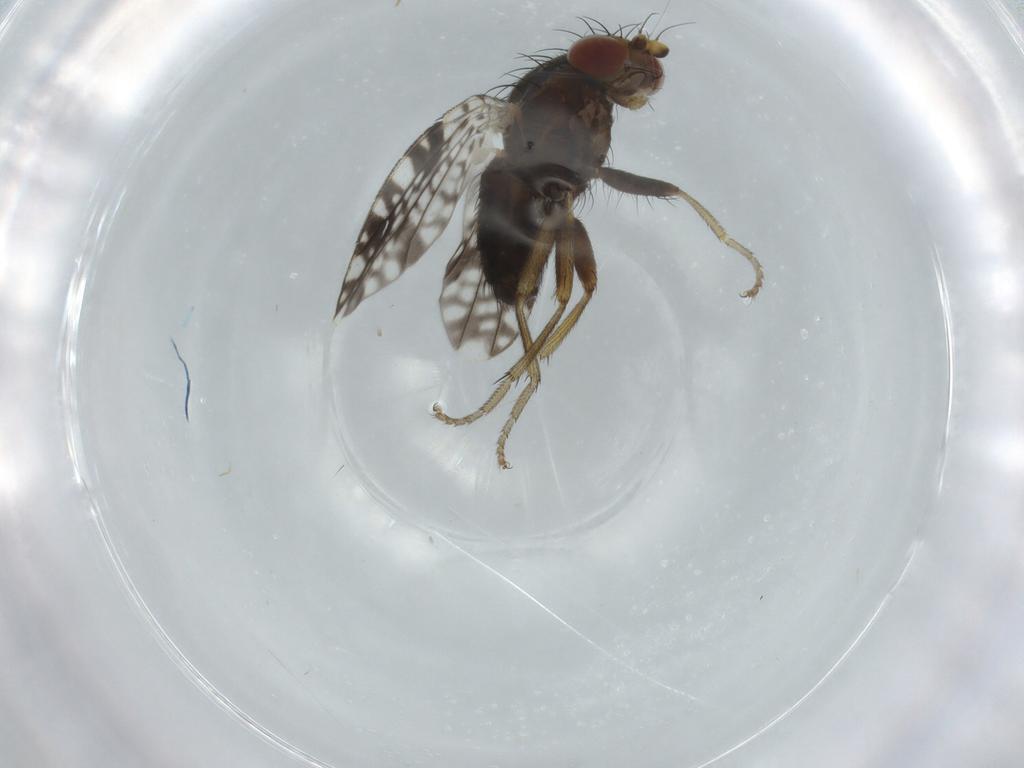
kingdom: Animalia
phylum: Arthropoda
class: Insecta
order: Diptera
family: Tephritidae
